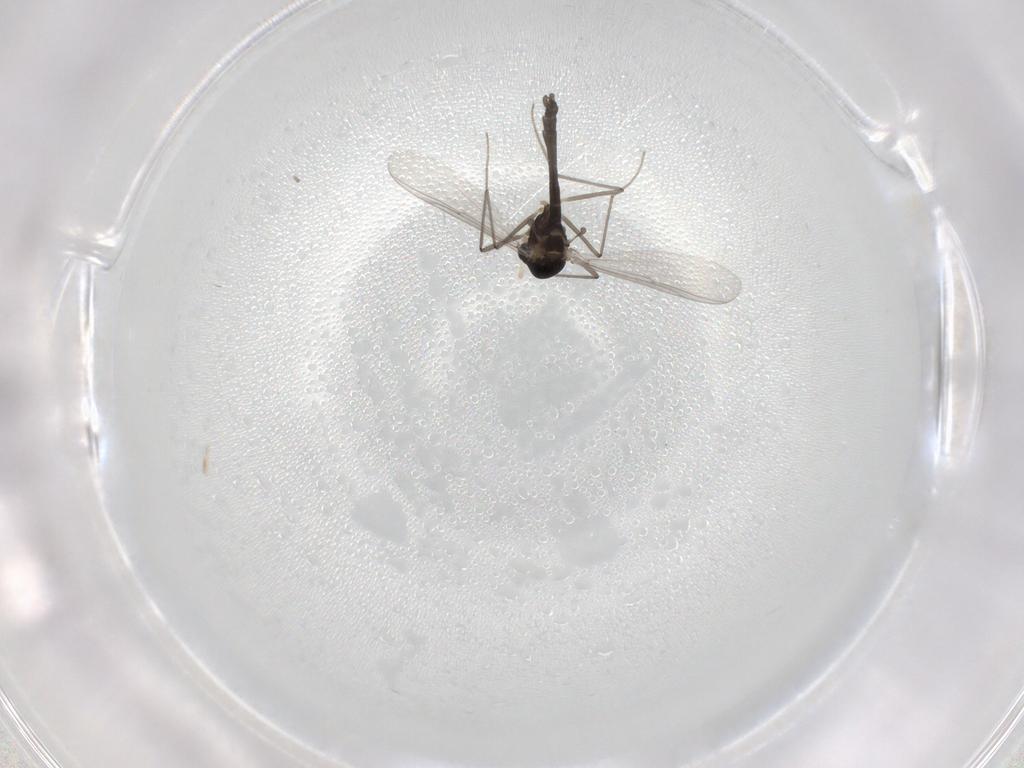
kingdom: Animalia
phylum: Arthropoda
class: Insecta
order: Diptera
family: Chironomidae
